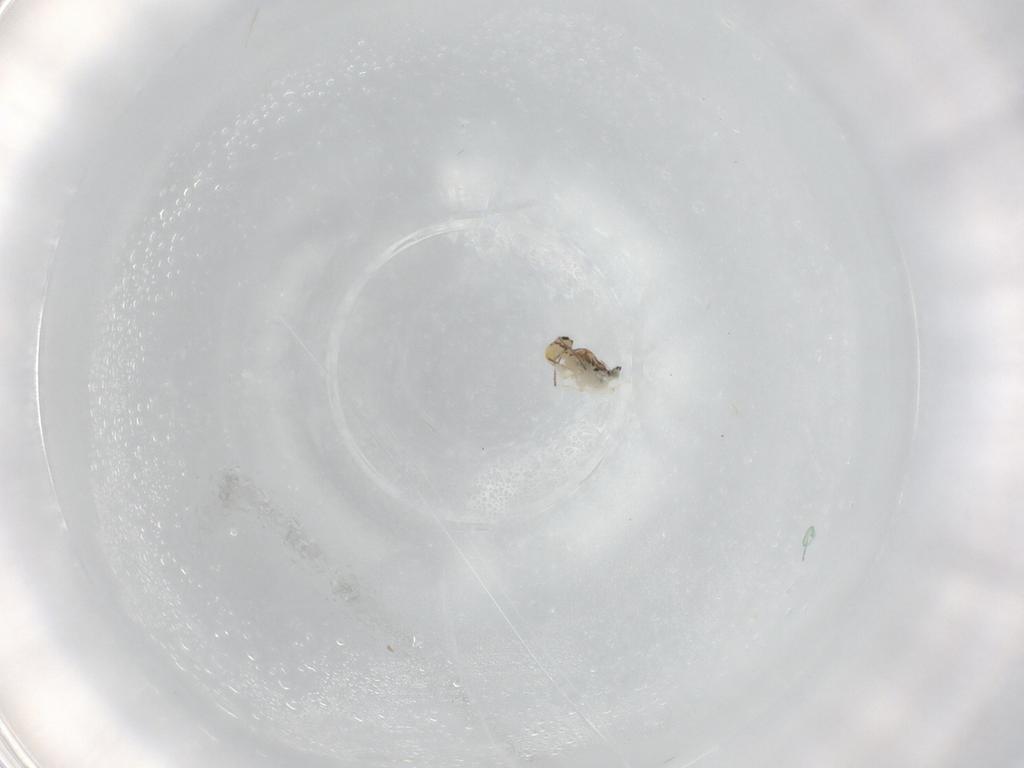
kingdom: Animalia
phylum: Arthropoda
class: Collembola
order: Symphypleona
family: Bourletiellidae
